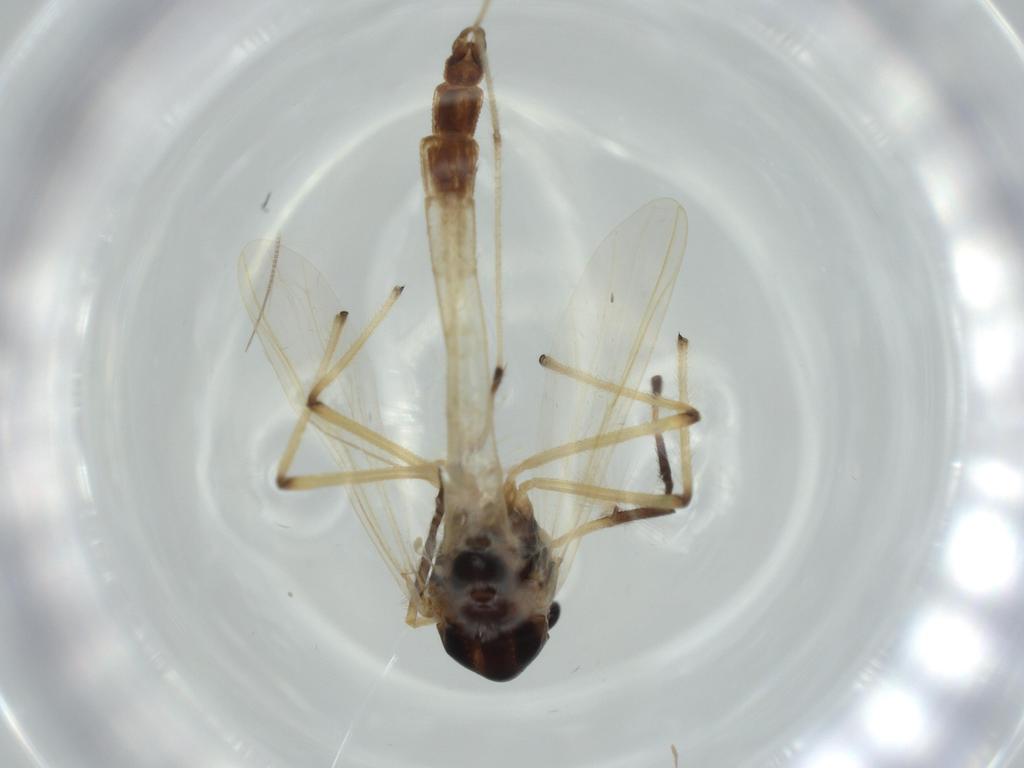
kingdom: Animalia
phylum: Arthropoda
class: Insecta
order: Diptera
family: Chironomidae
